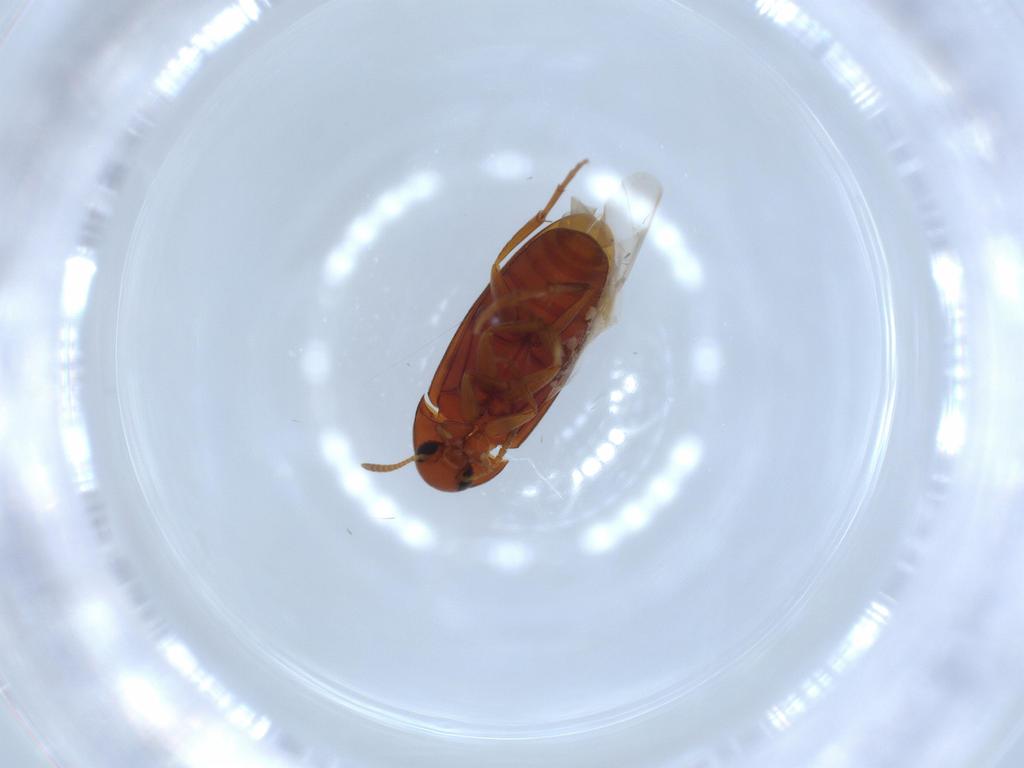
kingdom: Animalia
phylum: Arthropoda
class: Insecta
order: Coleoptera
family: Scraptiidae
